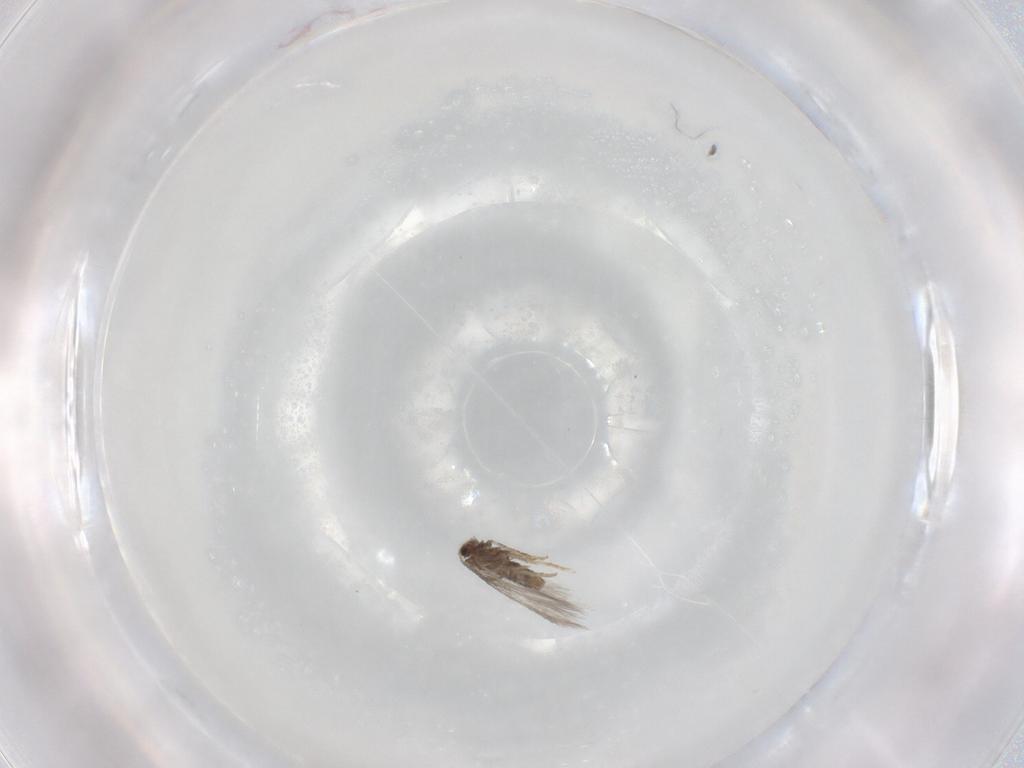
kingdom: Animalia
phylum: Arthropoda
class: Insecta
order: Lepidoptera
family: Nepticulidae
